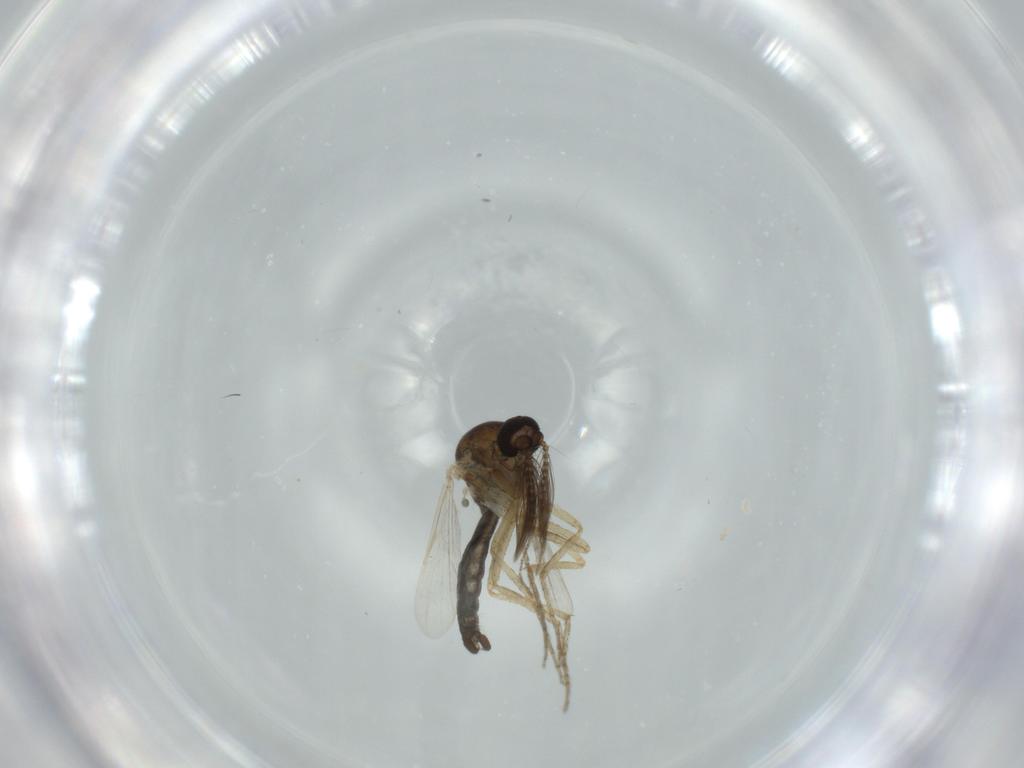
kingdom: Animalia
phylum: Arthropoda
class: Insecta
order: Diptera
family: Ceratopogonidae
